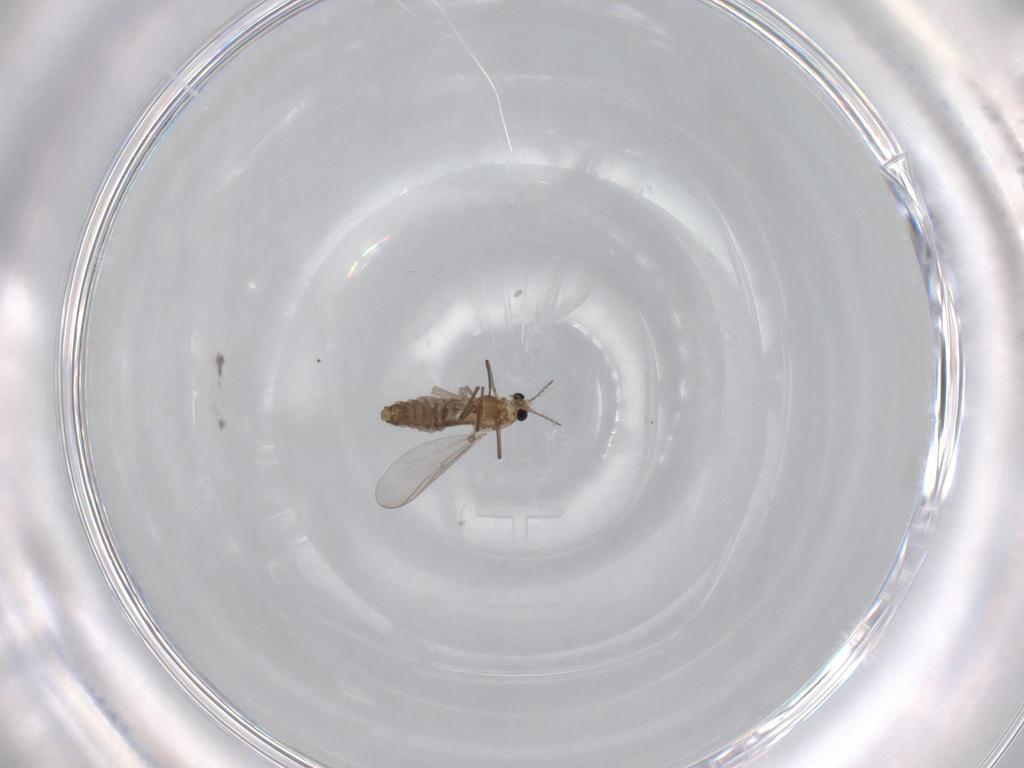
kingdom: Animalia
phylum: Arthropoda
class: Insecta
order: Diptera
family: Chironomidae
